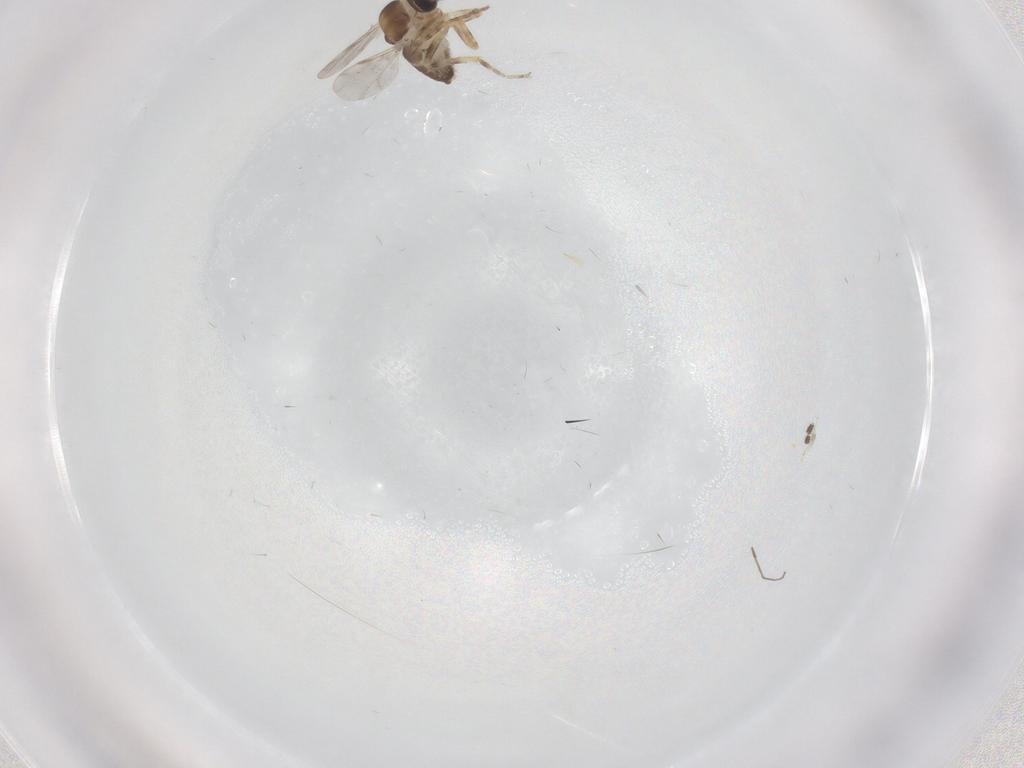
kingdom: Animalia
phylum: Arthropoda
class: Insecta
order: Diptera
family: Ceratopogonidae
